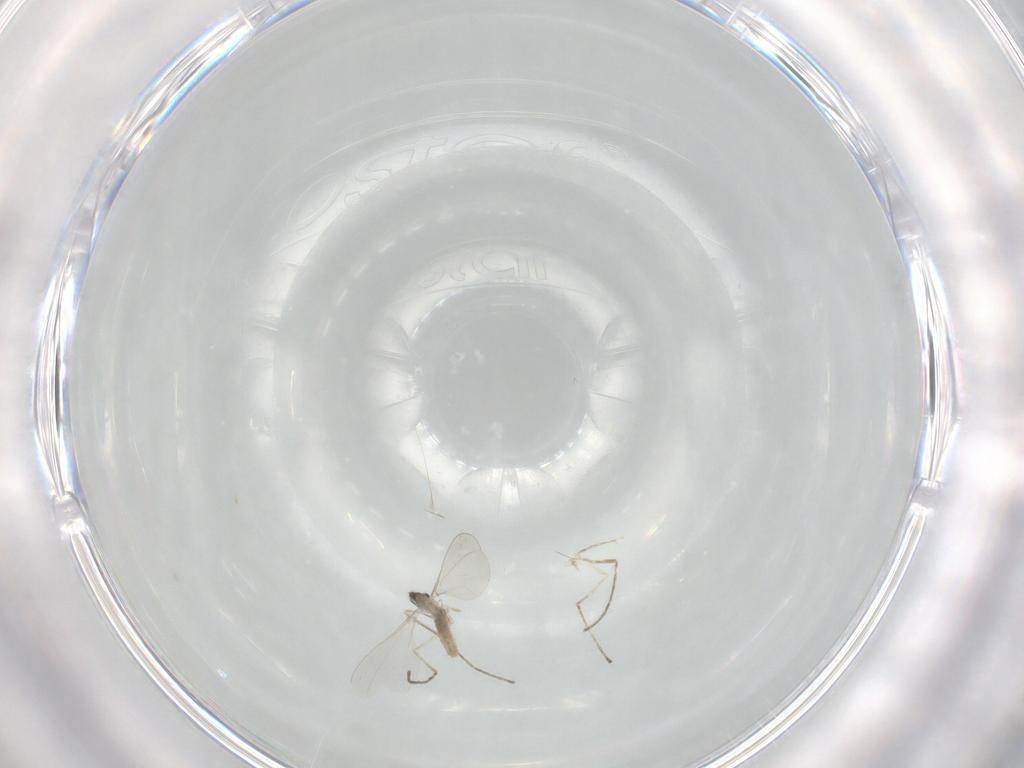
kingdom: Animalia
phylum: Arthropoda
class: Insecta
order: Diptera
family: Cecidomyiidae
